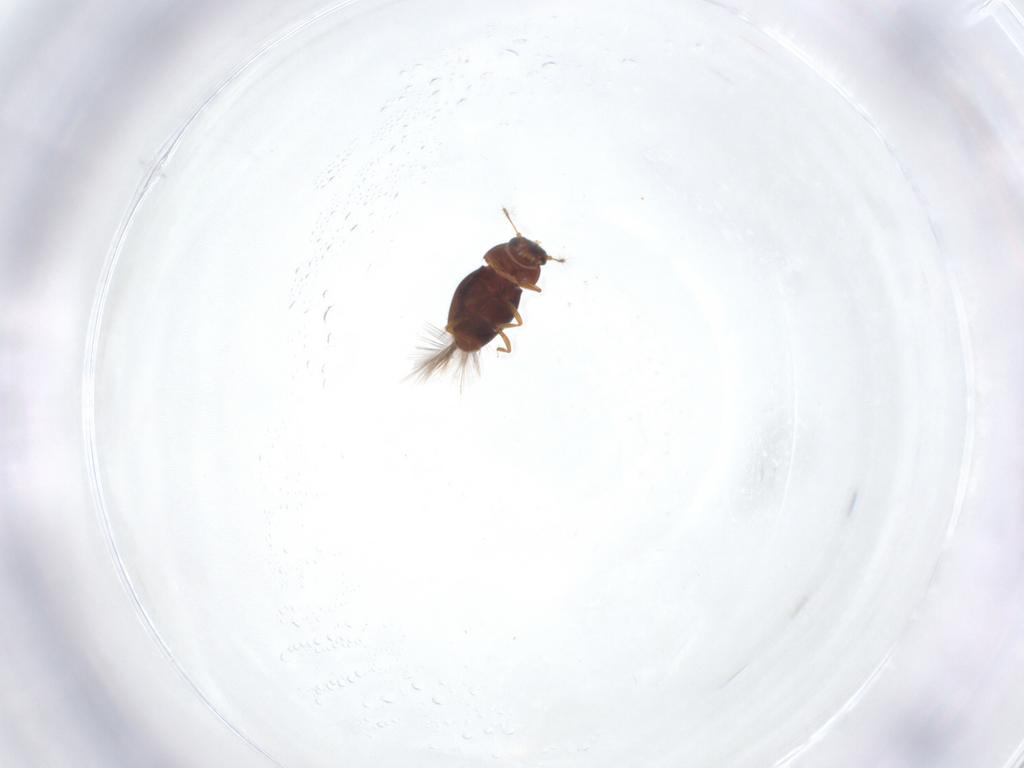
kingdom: Animalia
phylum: Arthropoda
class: Insecta
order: Coleoptera
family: Ptiliidae
